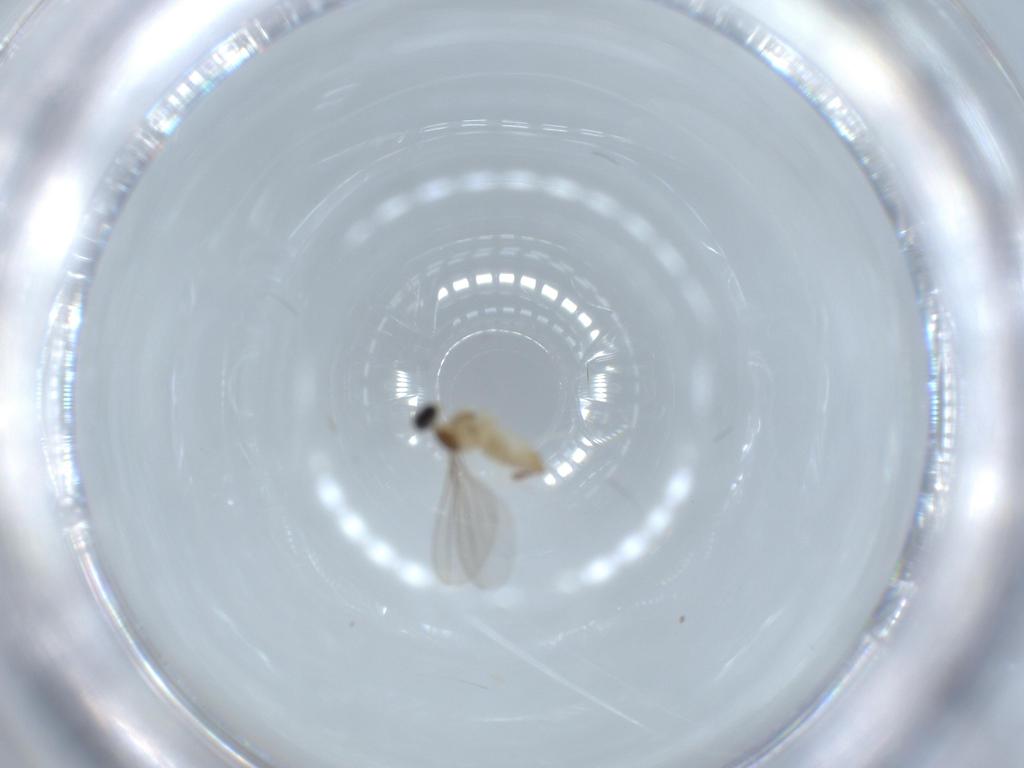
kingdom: Animalia
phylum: Arthropoda
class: Insecta
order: Diptera
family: Cecidomyiidae
